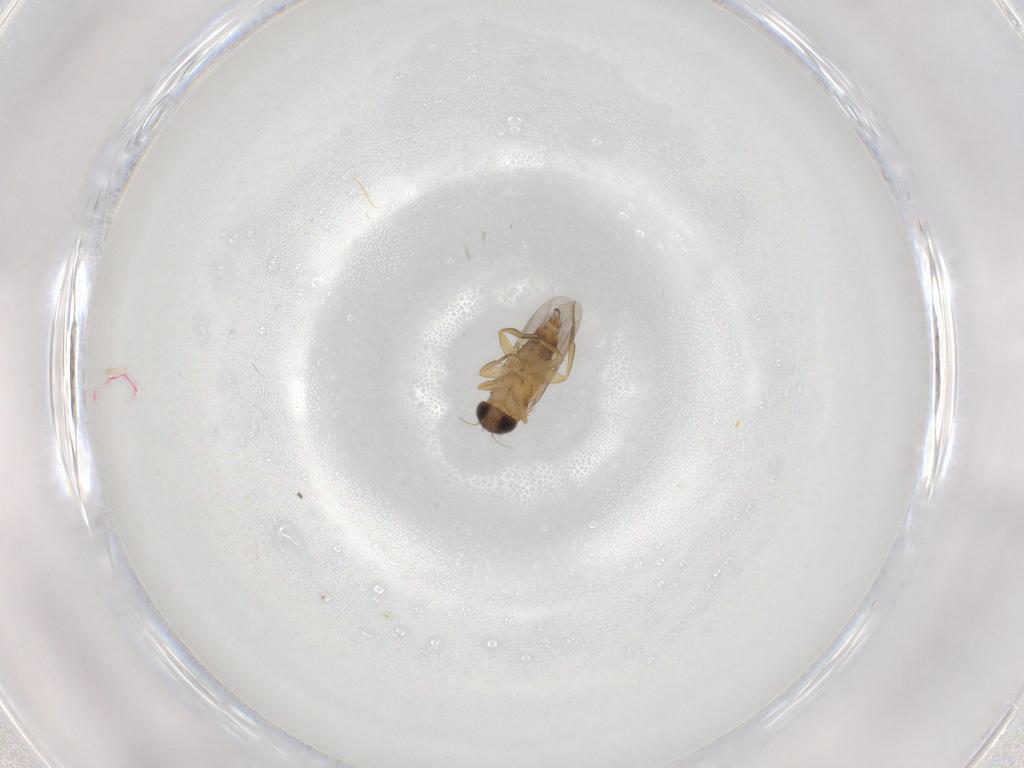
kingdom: Animalia
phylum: Arthropoda
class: Insecta
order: Diptera
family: Phoridae
